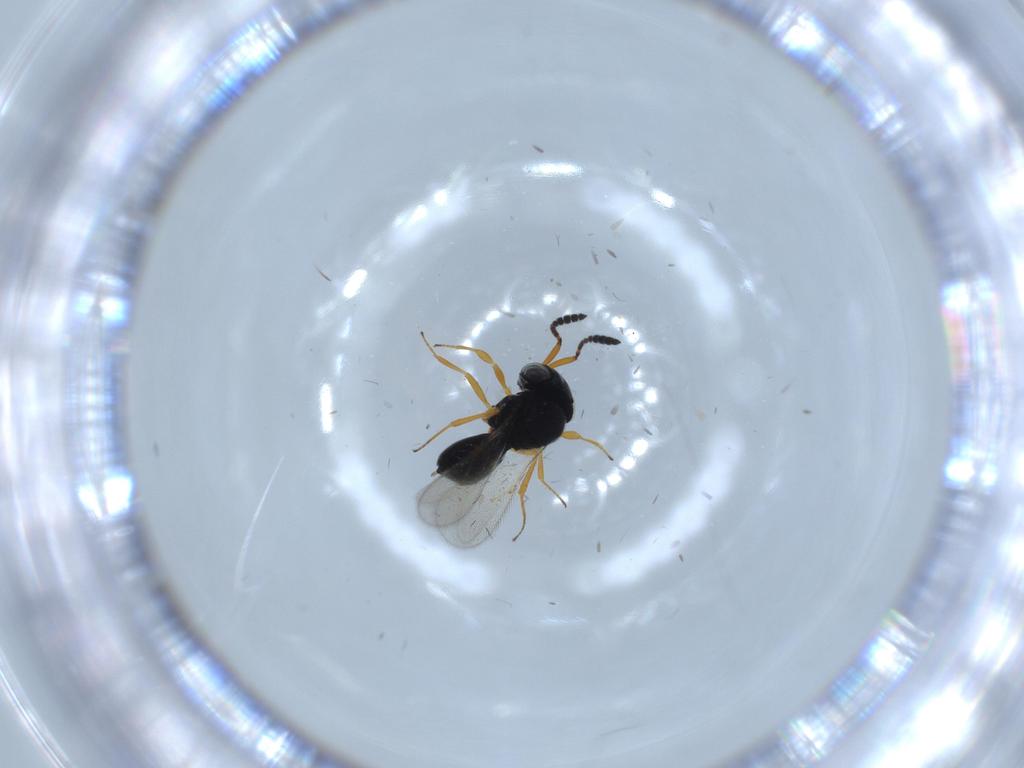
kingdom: Animalia
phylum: Arthropoda
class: Insecta
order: Hymenoptera
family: Scelionidae
